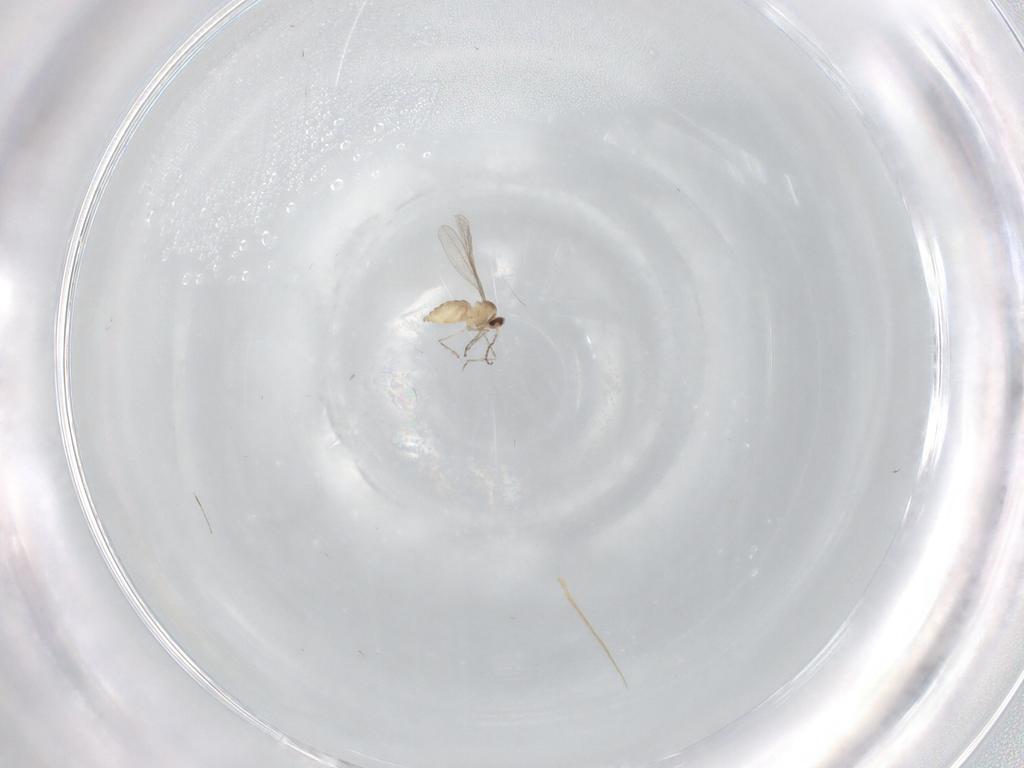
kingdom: Animalia
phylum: Arthropoda
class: Insecta
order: Diptera
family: Cecidomyiidae
